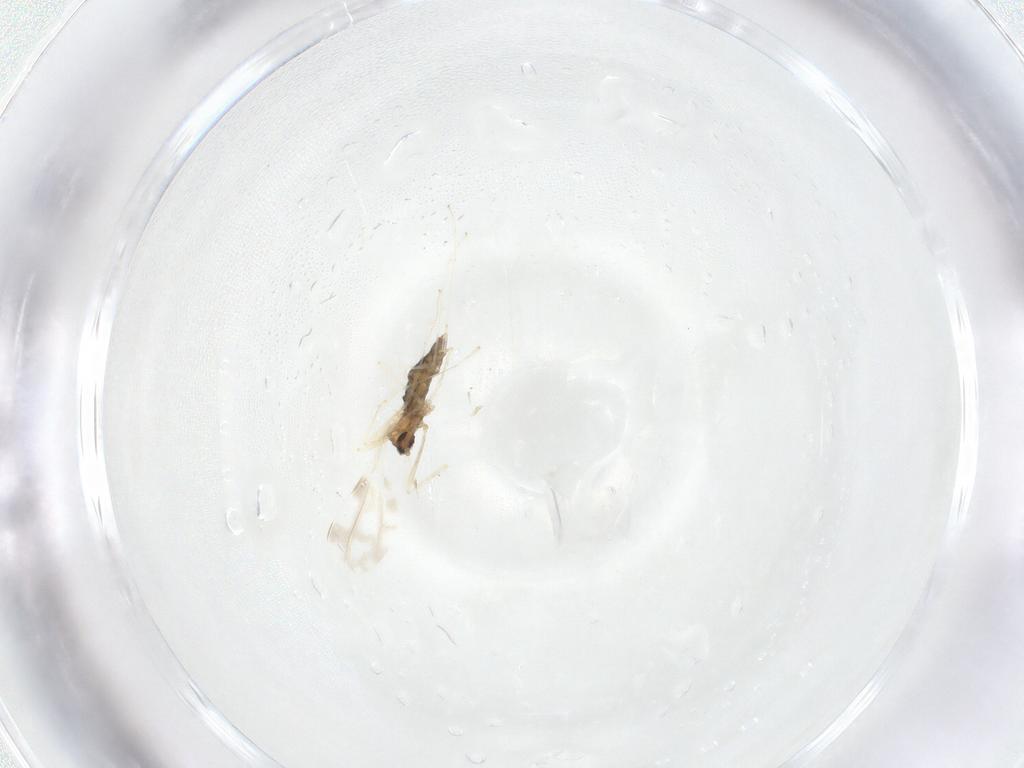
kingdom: Animalia
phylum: Arthropoda
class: Insecta
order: Diptera
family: Cecidomyiidae
